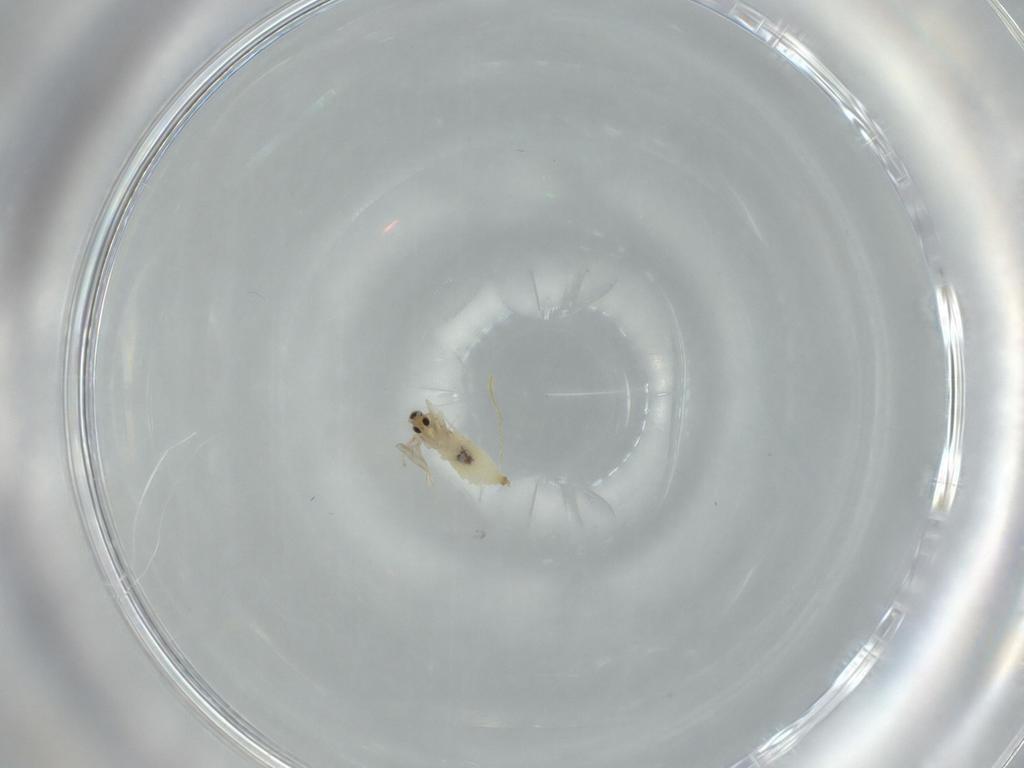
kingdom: Animalia
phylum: Arthropoda
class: Insecta
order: Diptera
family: Cecidomyiidae
